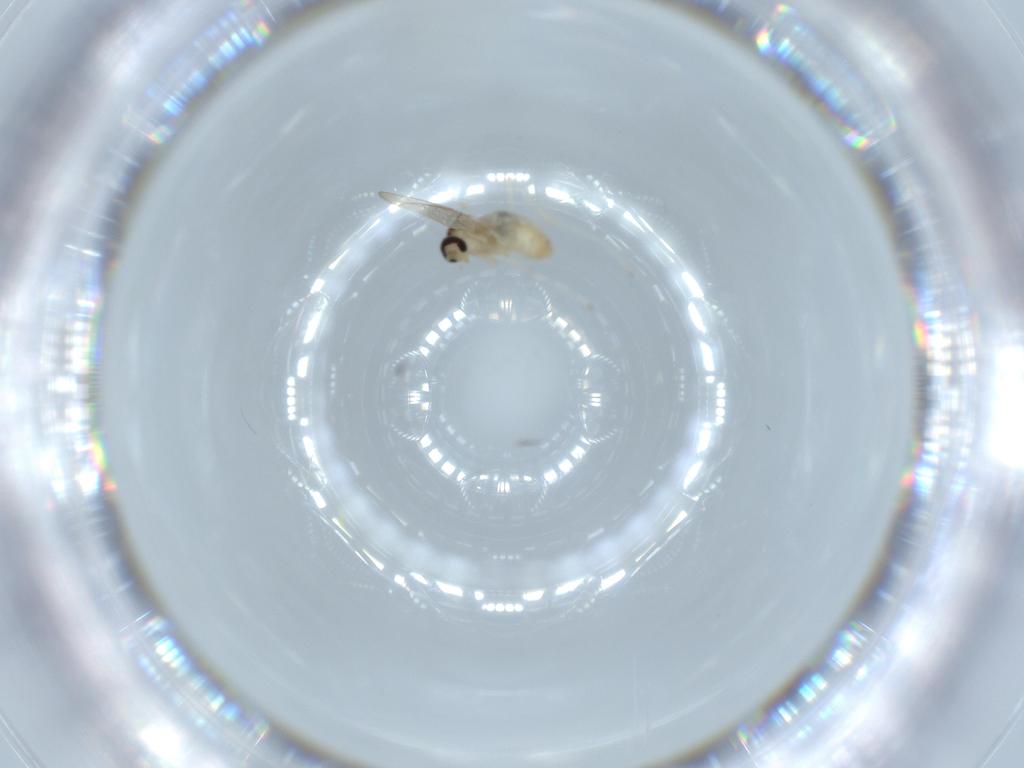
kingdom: Animalia
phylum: Arthropoda
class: Insecta
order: Diptera
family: Cecidomyiidae
